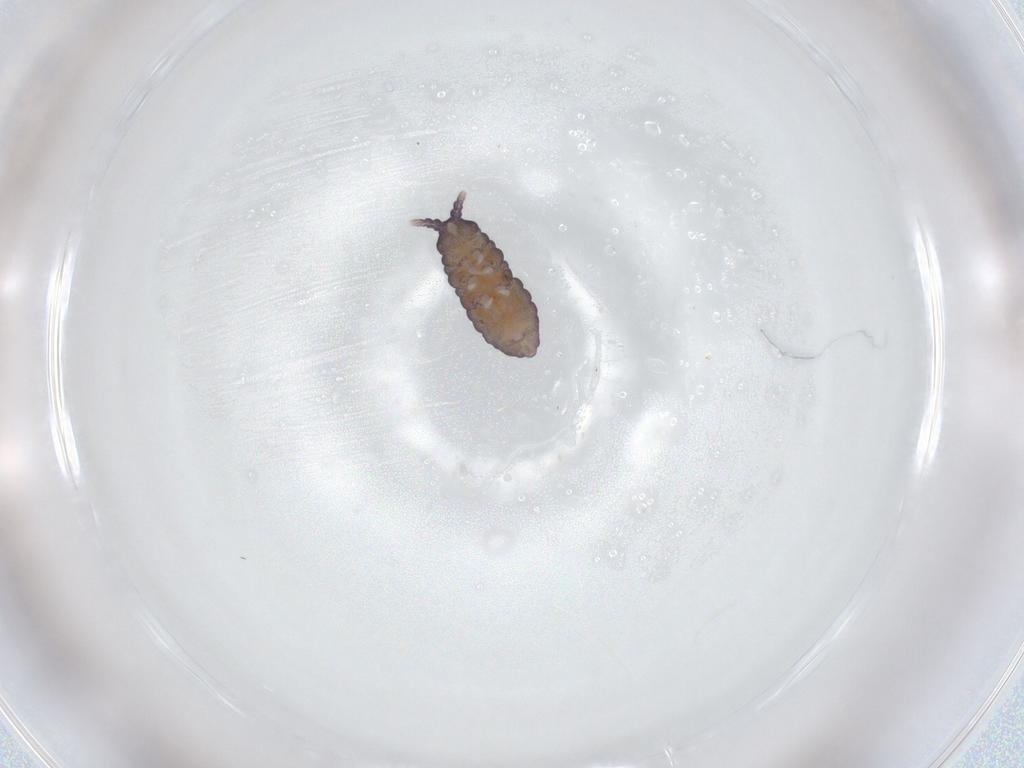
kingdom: Animalia
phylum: Arthropoda
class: Collembola
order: Poduromorpha
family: Neanuridae
